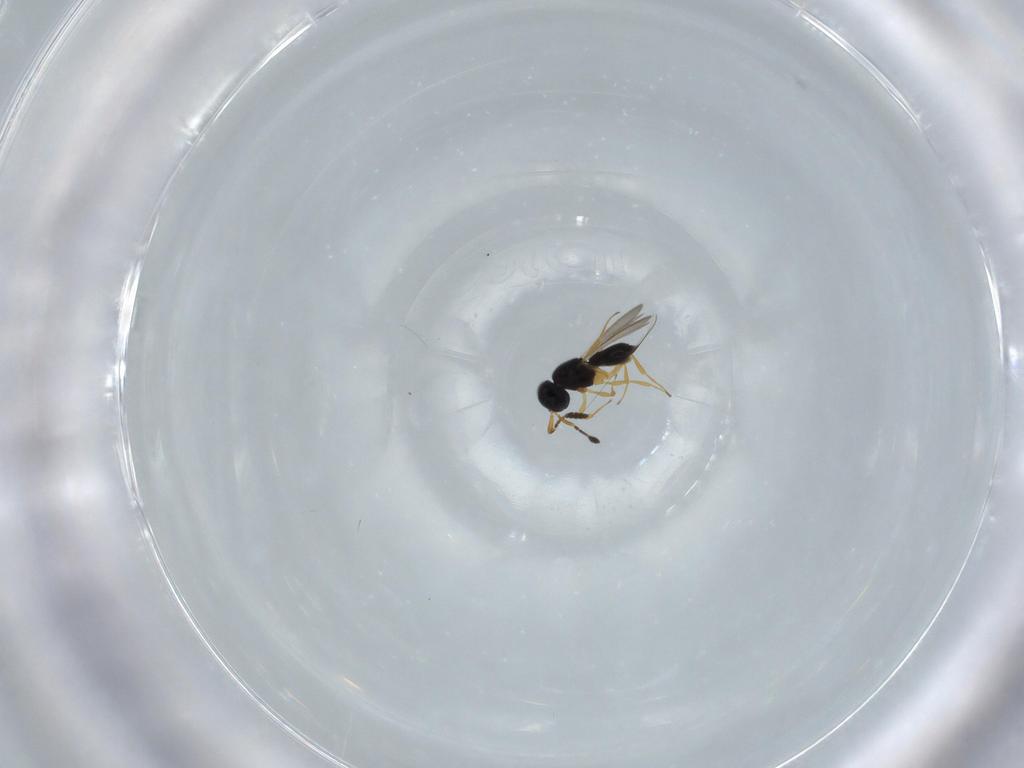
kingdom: Animalia
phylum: Arthropoda
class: Insecta
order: Hymenoptera
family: Scelionidae
